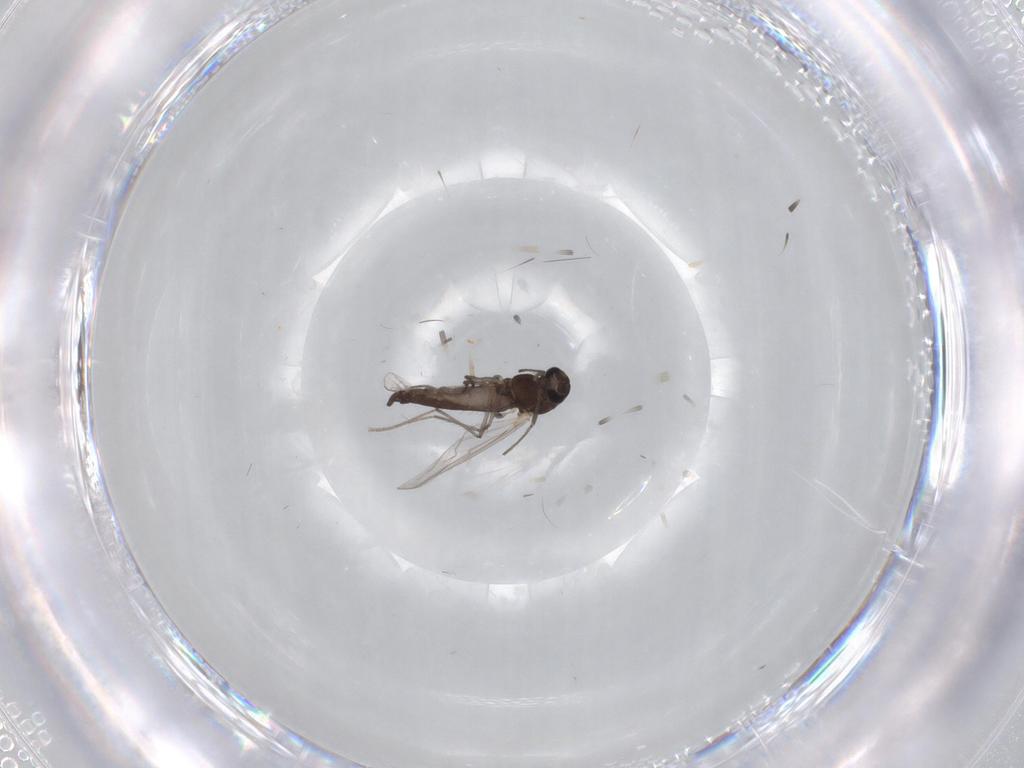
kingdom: Animalia
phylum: Arthropoda
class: Insecta
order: Diptera
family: Chironomidae
